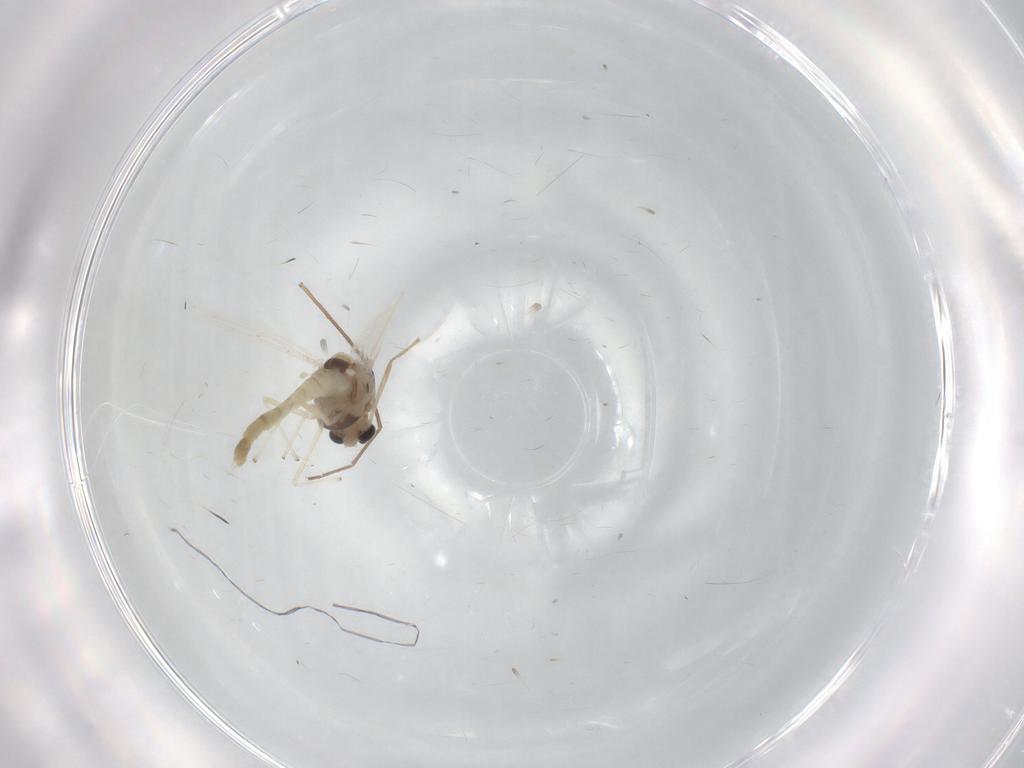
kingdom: Animalia
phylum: Arthropoda
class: Insecta
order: Diptera
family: Chironomidae
